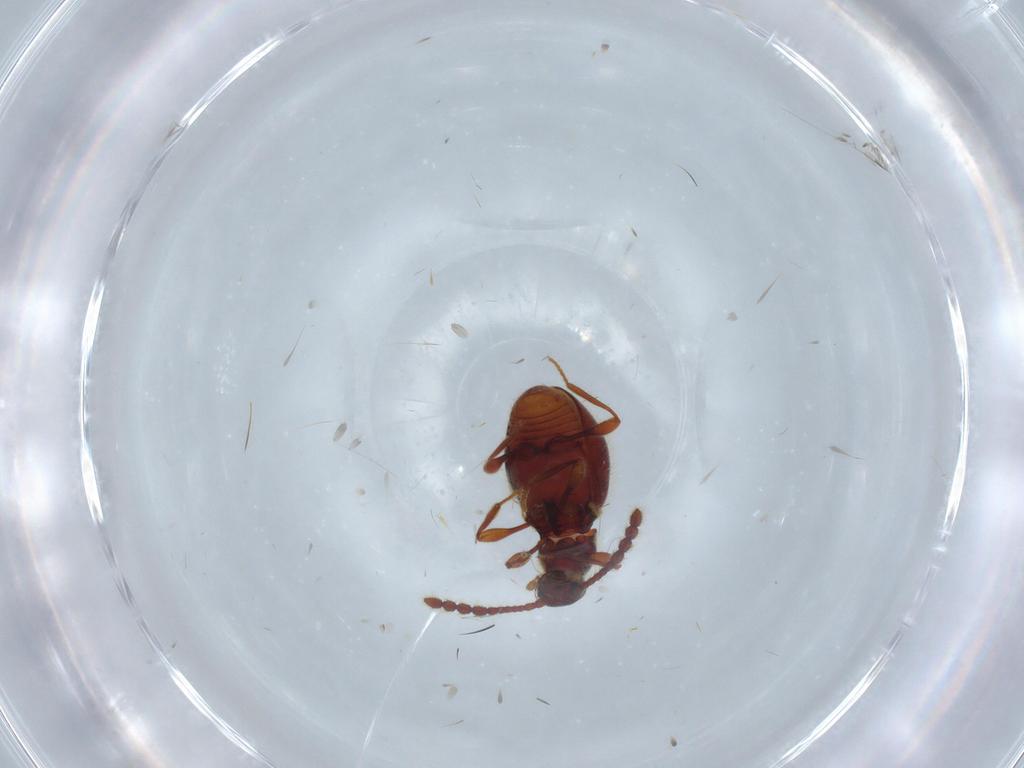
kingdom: Animalia
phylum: Arthropoda
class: Insecta
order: Coleoptera
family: Staphylinidae
